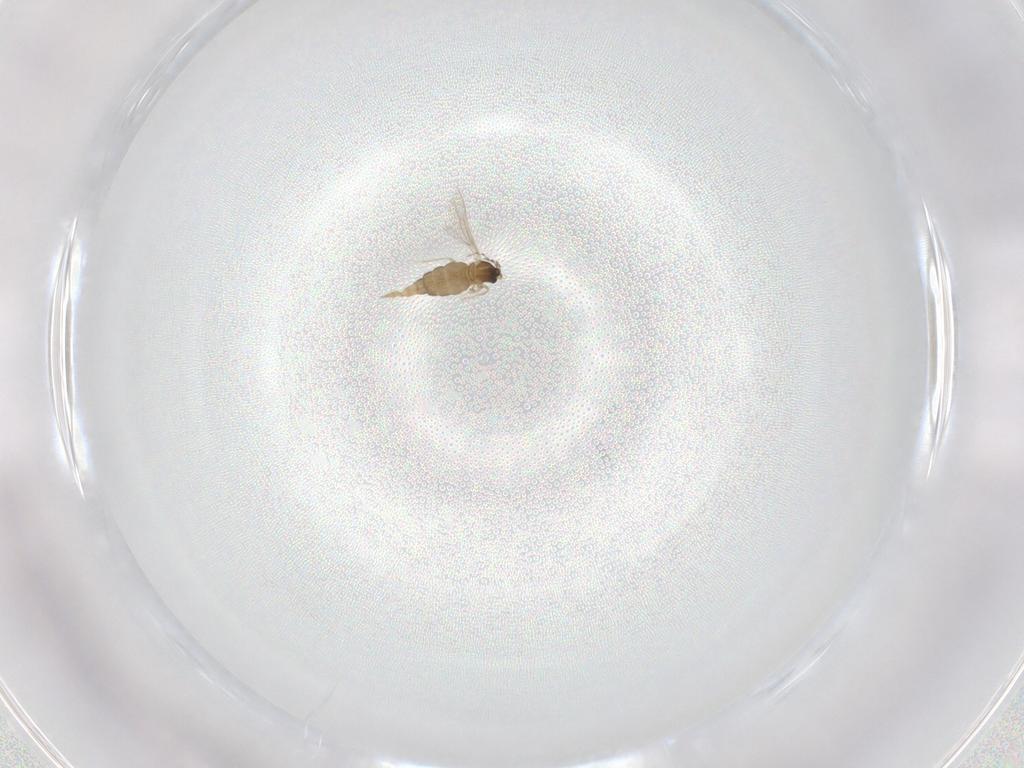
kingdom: Animalia
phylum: Arthropoda
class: Insecta
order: Diptera
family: Cecidomyiidae
